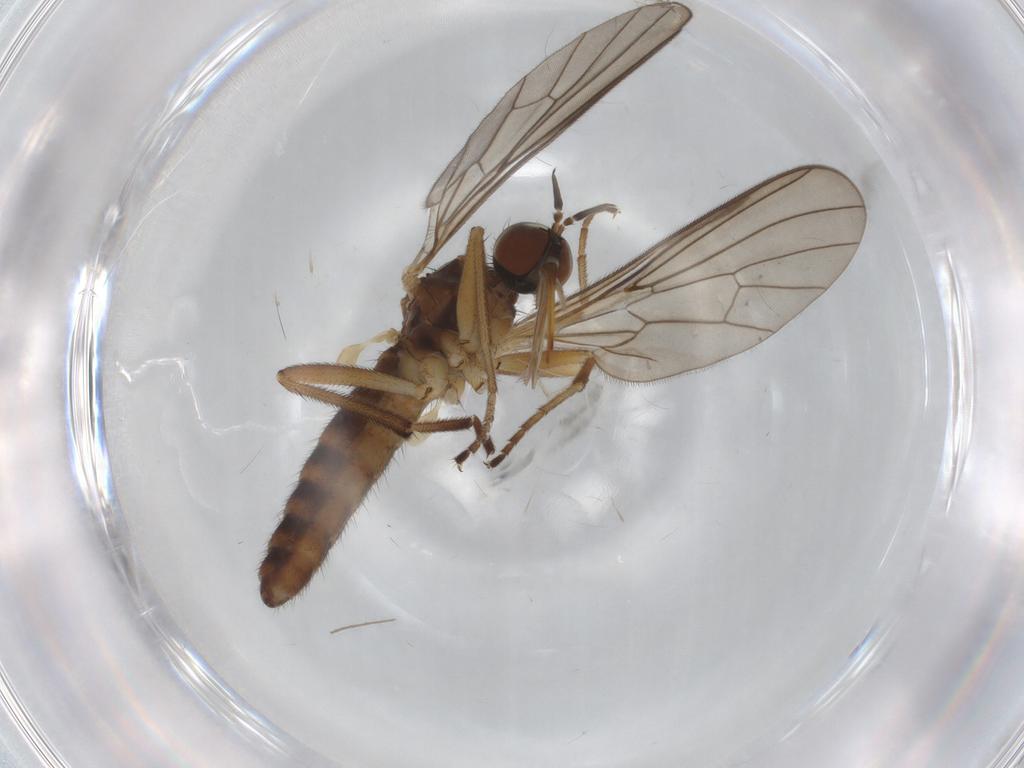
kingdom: Animalia
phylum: Arthropoda
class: Insecta
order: Diptera
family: Empididae
